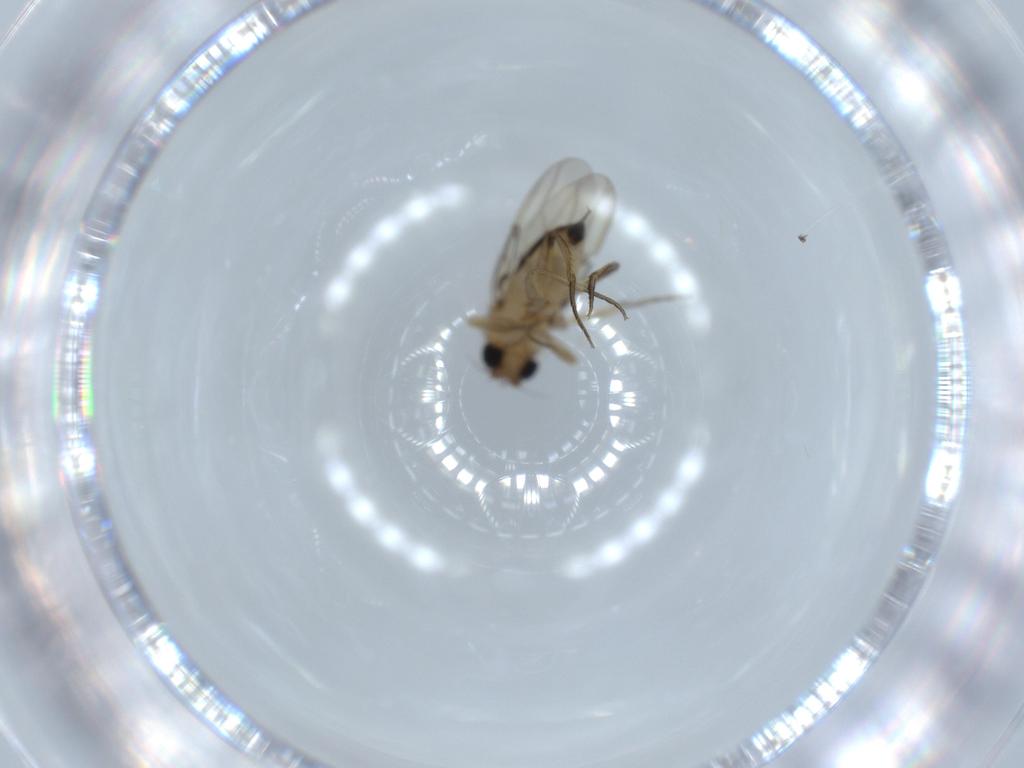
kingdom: Animalia
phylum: Arthropoda
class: Insecta
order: Diptera
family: Phoridae
